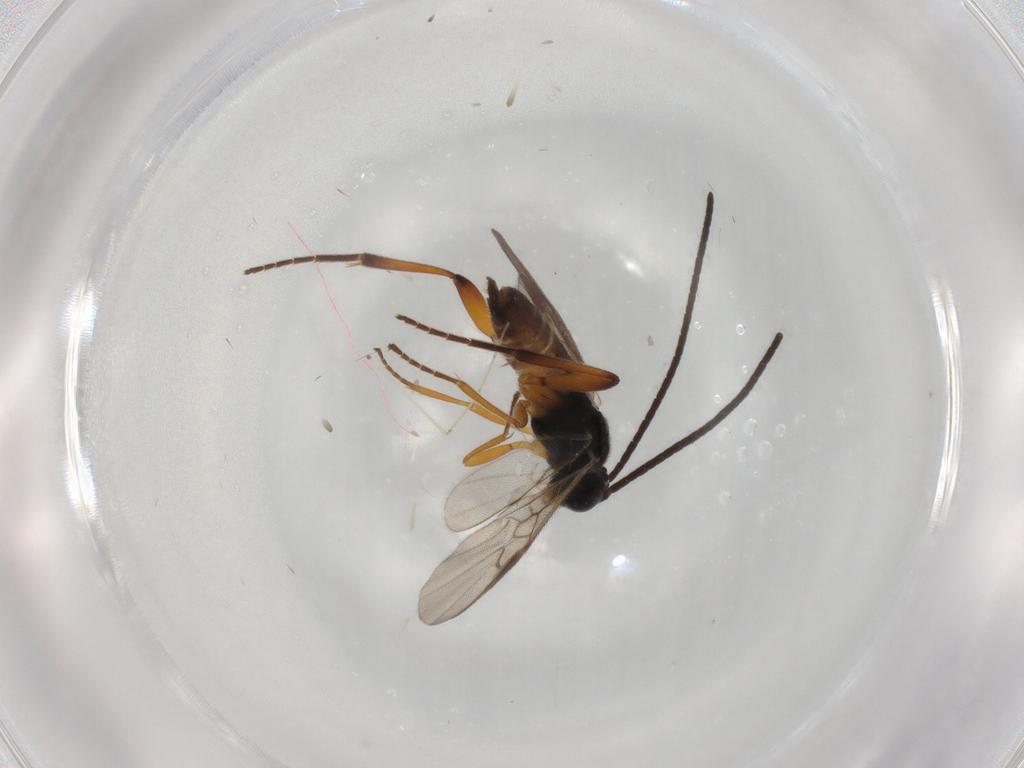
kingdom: Animalia
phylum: Arthropoda
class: Insecta
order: Hymenoptera
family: Braconidae
